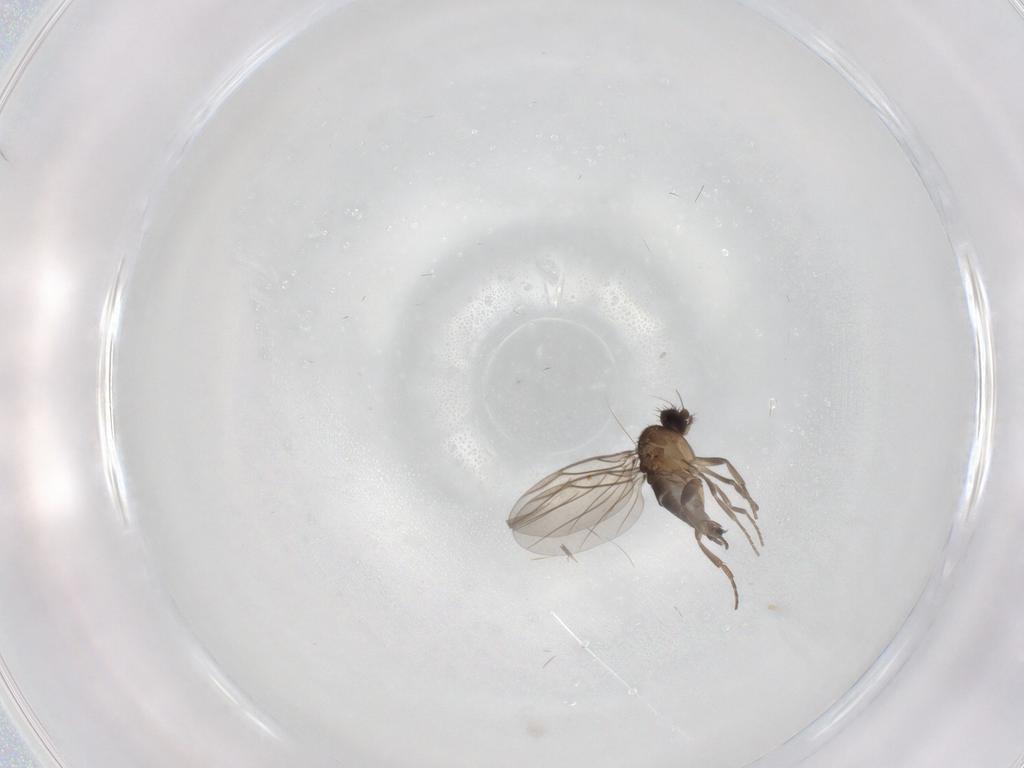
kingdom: Animalia
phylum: Arthropoda
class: Insecta
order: Diptera
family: Phoridae
